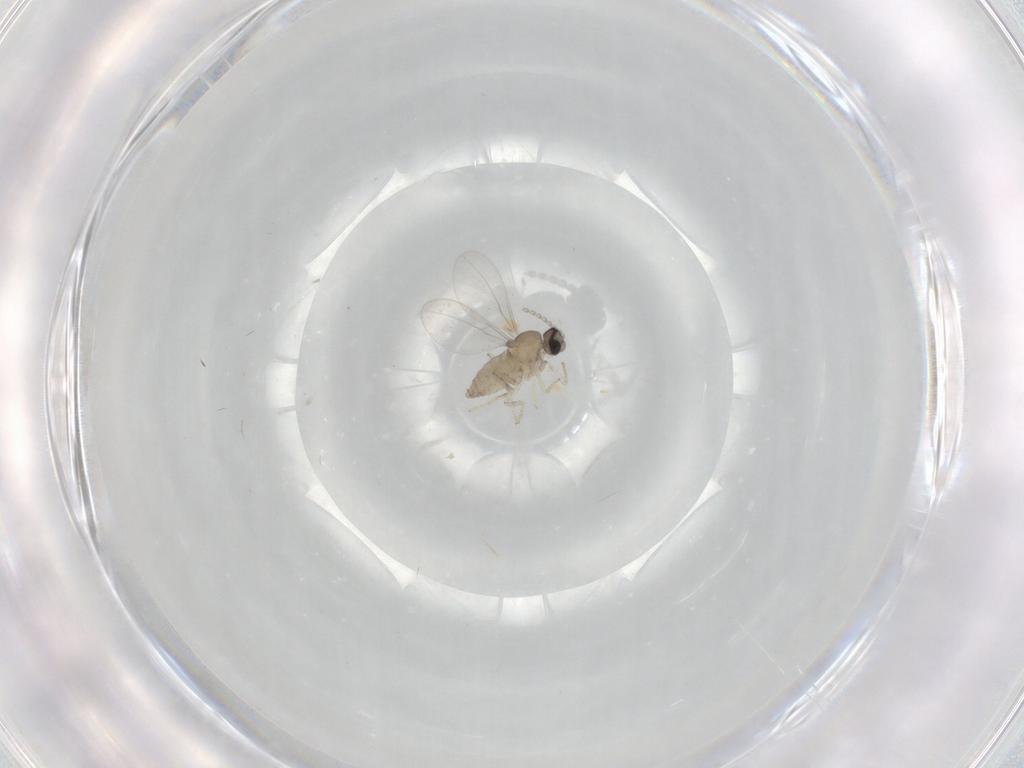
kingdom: Animalia
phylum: Arthropoda
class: Insecta
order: Diptera
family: Cecidomyiidae
